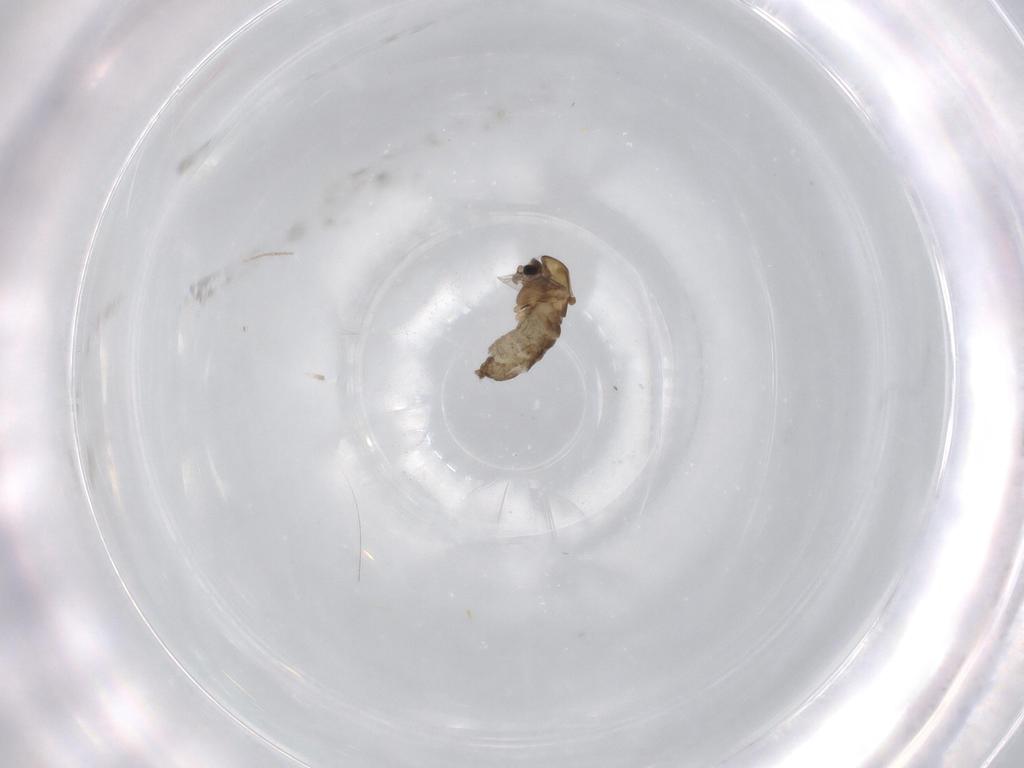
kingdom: Animalia
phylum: Arthropoda
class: Insecta
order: Diptera
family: Chironomidae
